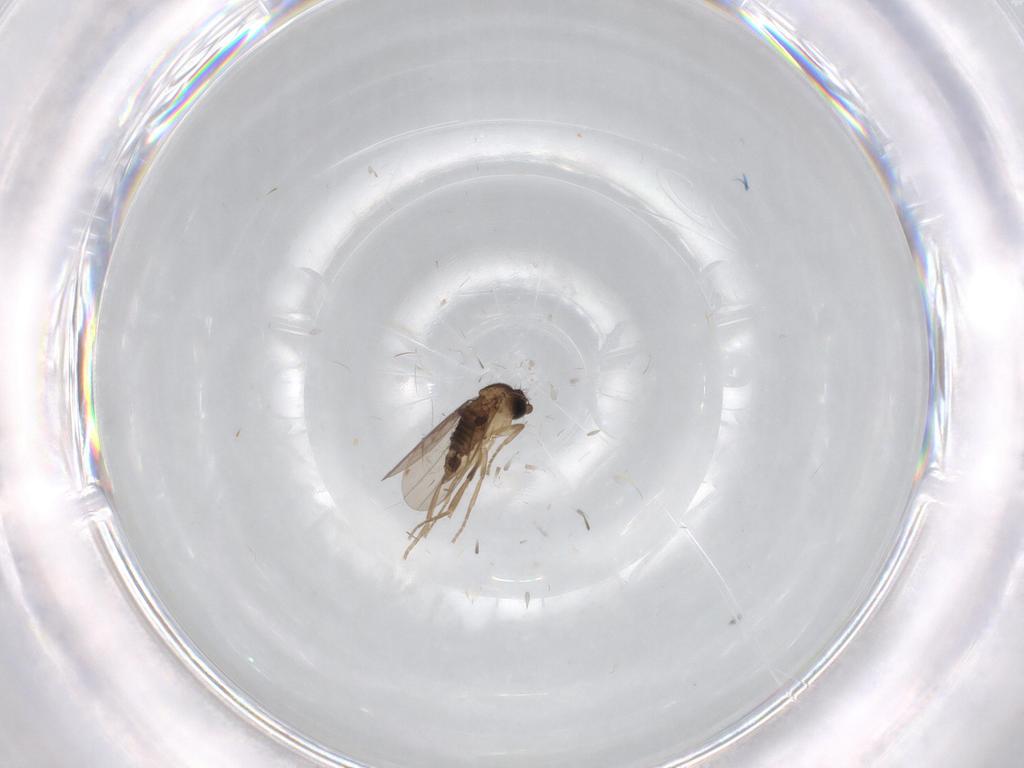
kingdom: Animalia
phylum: Arthropoda
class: Insecta
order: Diptera
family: Phoridae
